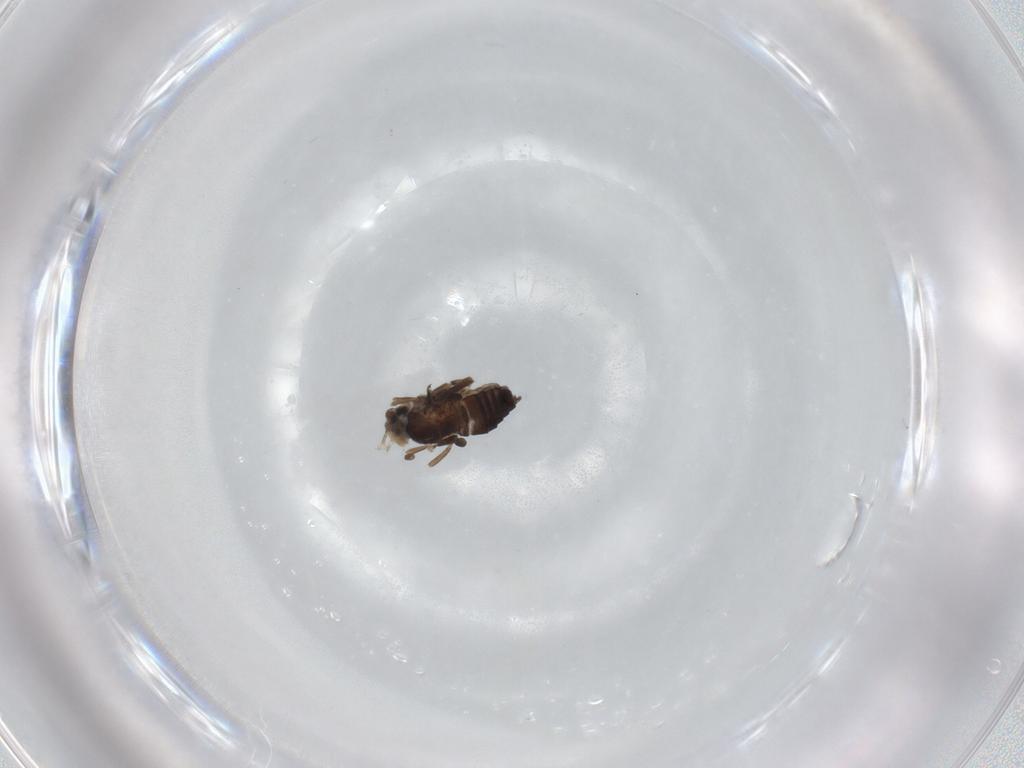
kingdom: Animalia
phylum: Arthropoda
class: Insecta
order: Diptera
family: Phoridae
